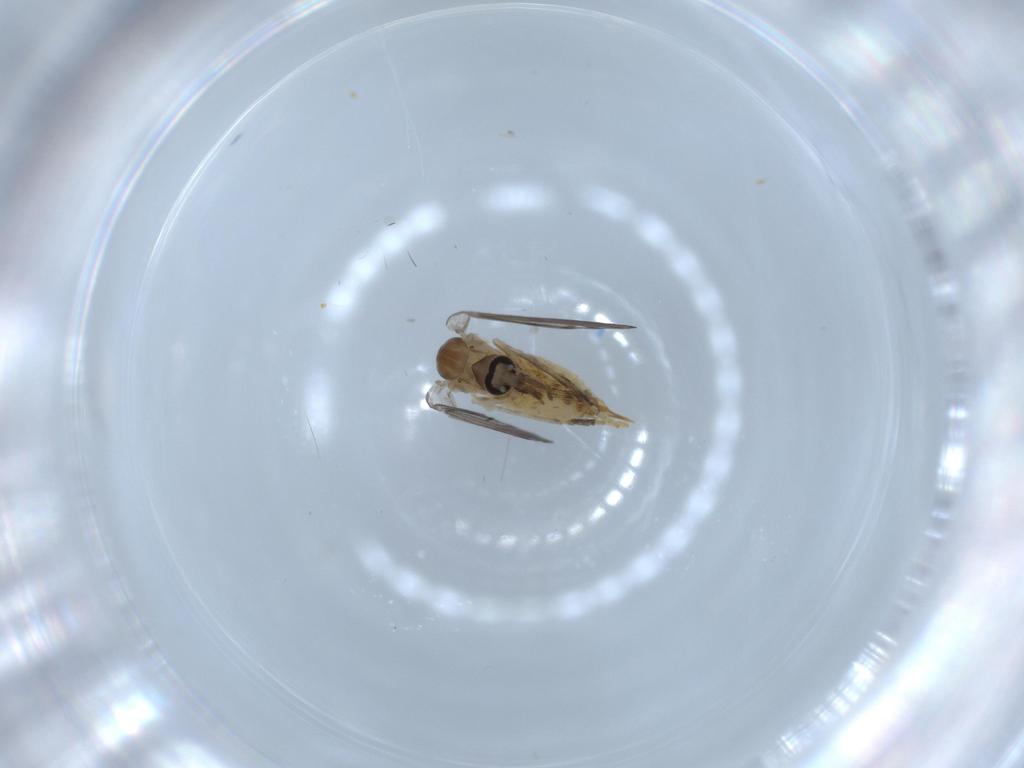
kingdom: Animalia
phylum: Arthropoda
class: Insecta
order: Diptera
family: Psychodidae
